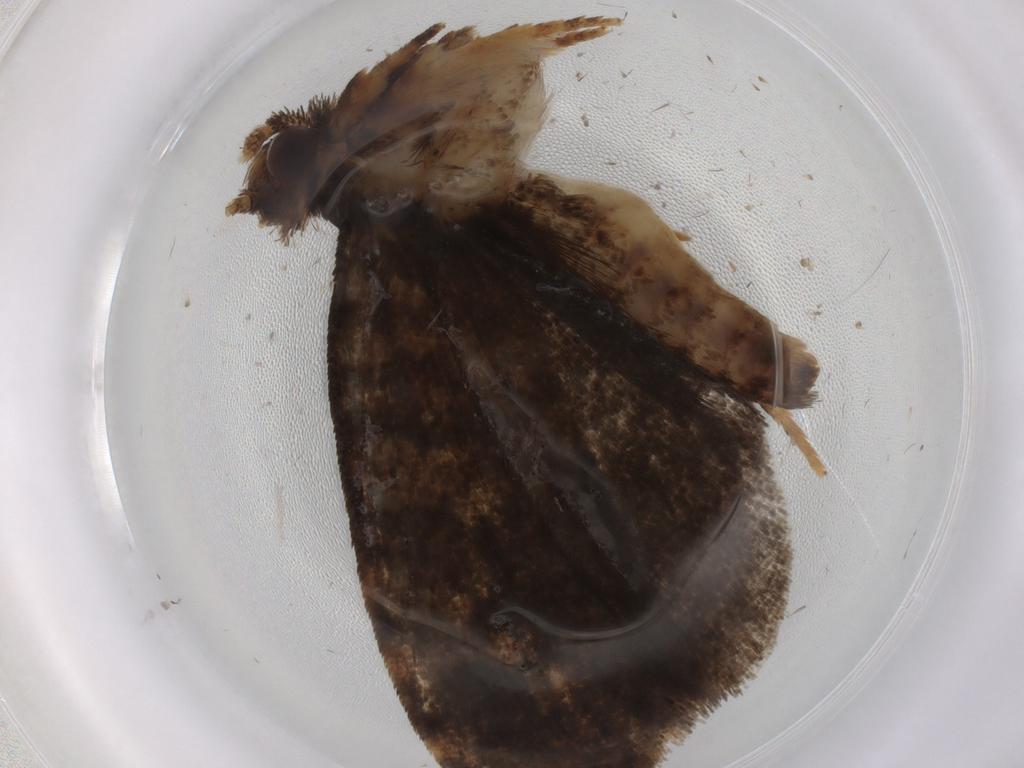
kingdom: Animalia
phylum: Arthropoda
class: Insecta
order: Lepidoptera
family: Tineidae
